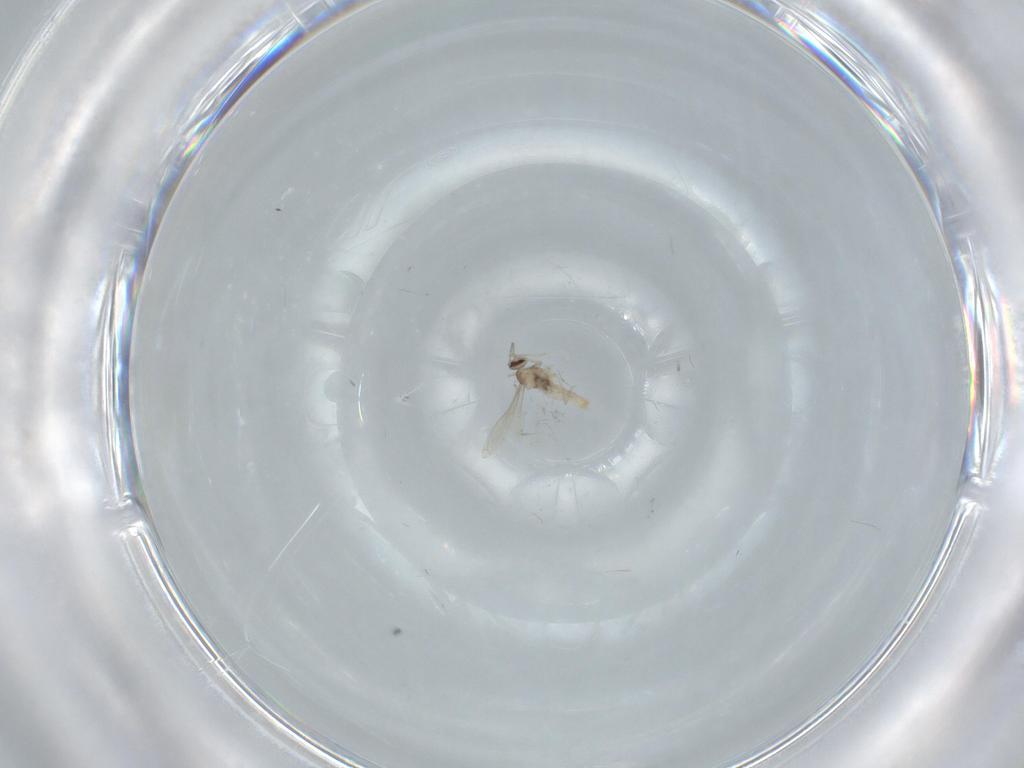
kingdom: Animalia
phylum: Arthropoda
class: Insecta
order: Diptera
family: Cecidomyiidae
